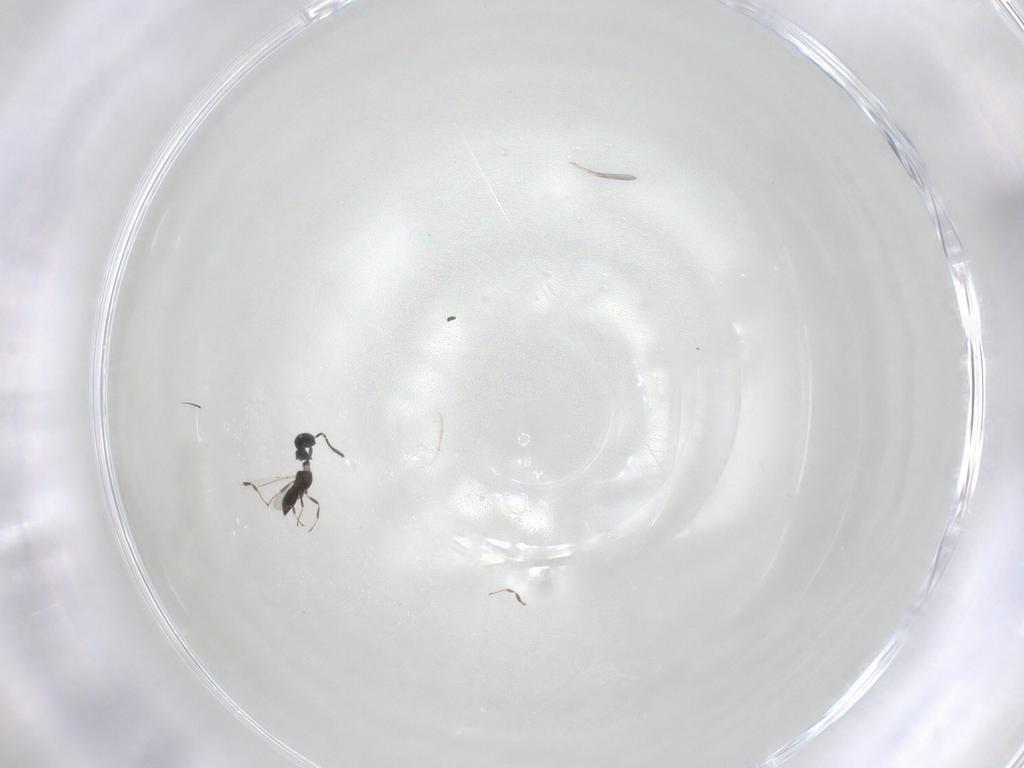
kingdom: Animalia
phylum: Arthropoda
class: Insecta
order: Hymenoptera
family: Scelionidae
